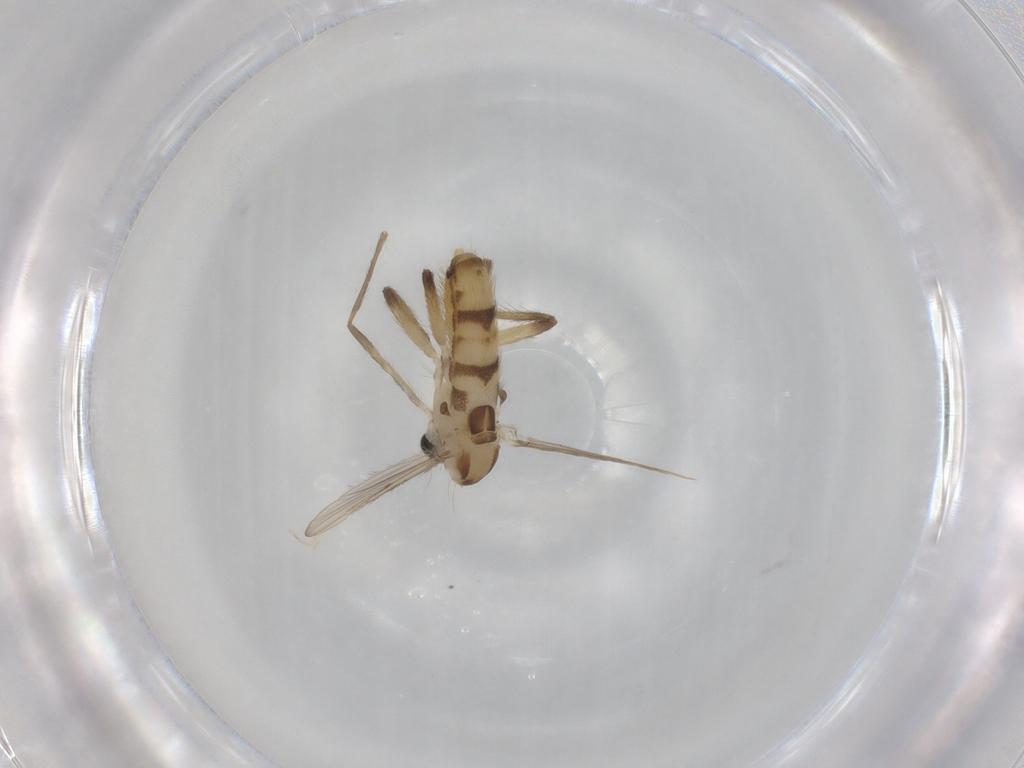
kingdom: Animalia
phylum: Arthropoda
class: Insecta
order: Diptera
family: Chironomidae
